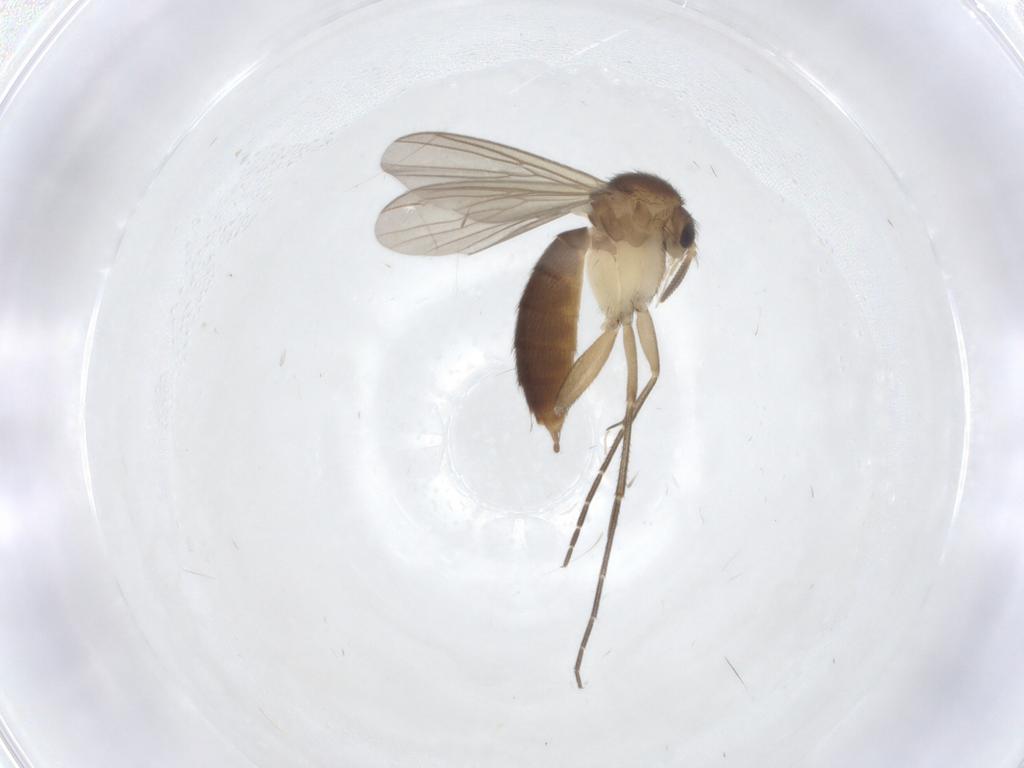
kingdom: Animalia
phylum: Arthropoda
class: Insecta
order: Diptera
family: Mycetophilidae
